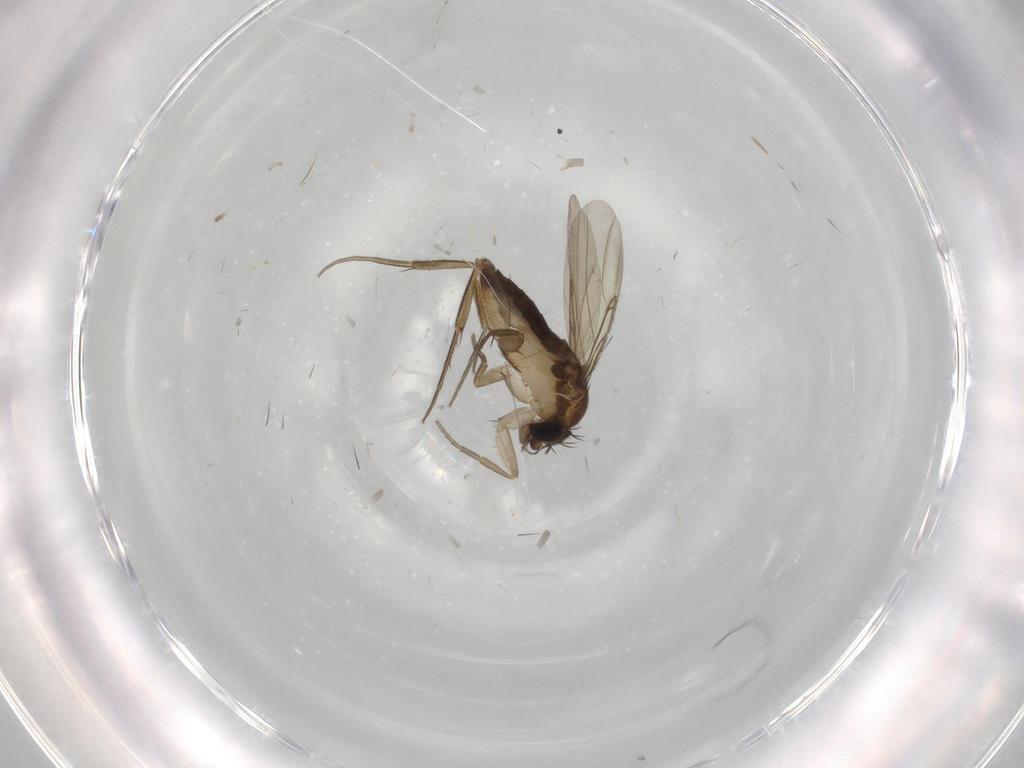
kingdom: Animalia
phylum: Arthropoda
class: Insecta
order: Diptera
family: Phoridae
